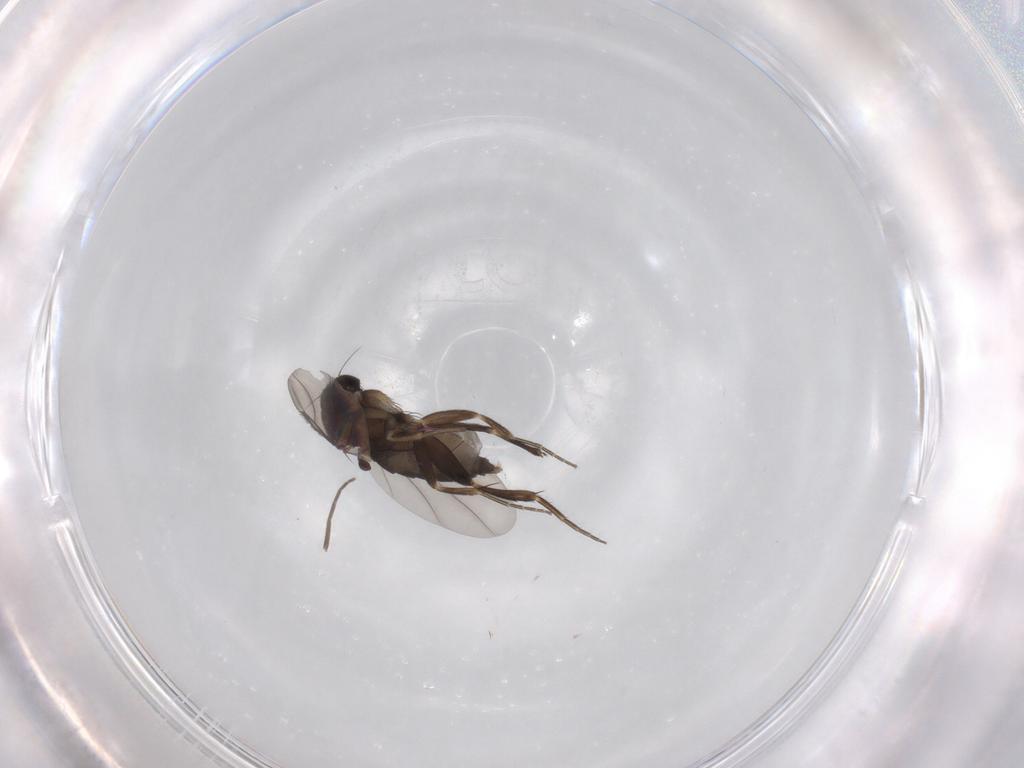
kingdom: Animalia
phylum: Arthropoda
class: Insecta
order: Diptera
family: Phoridae
